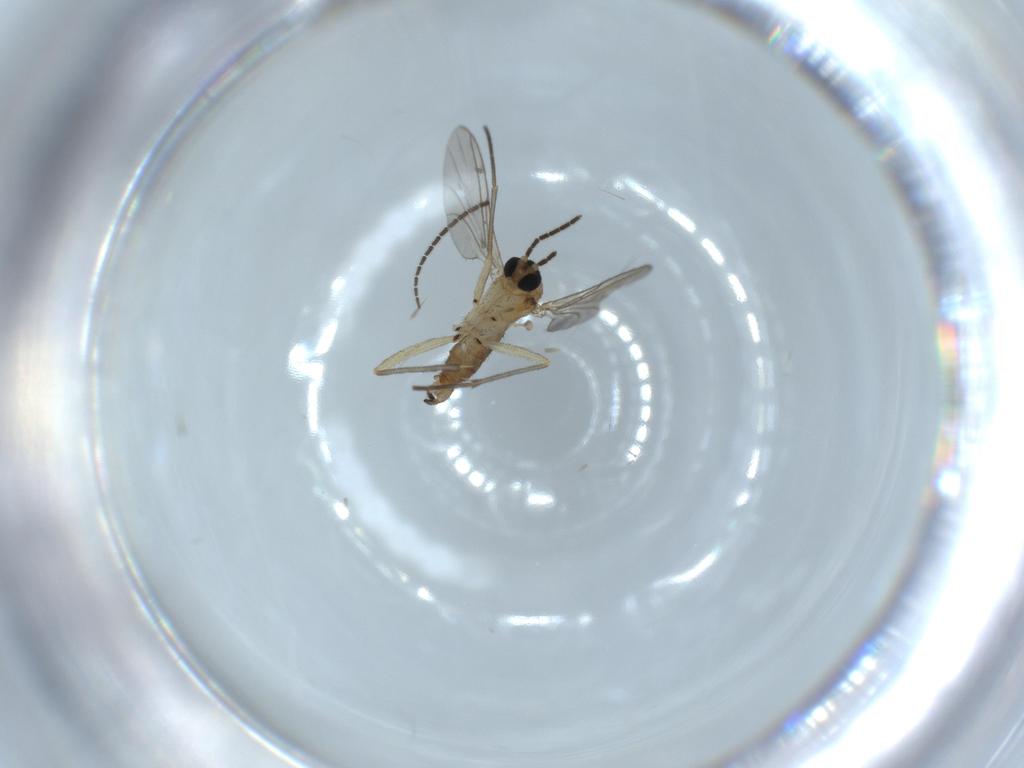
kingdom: Animalia
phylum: Arthropoda
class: Insecta
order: Diptera
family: Sciaridae
